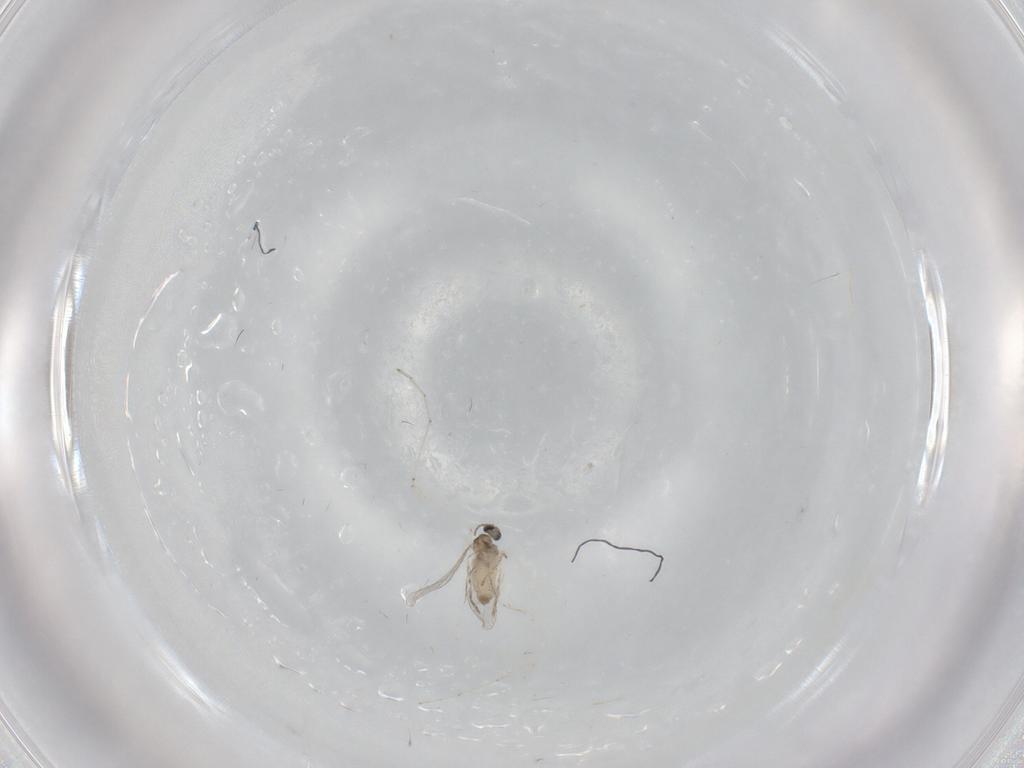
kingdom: Animalia
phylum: Arthropoda
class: Insecta
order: Diptera
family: Cecidomyiidae
